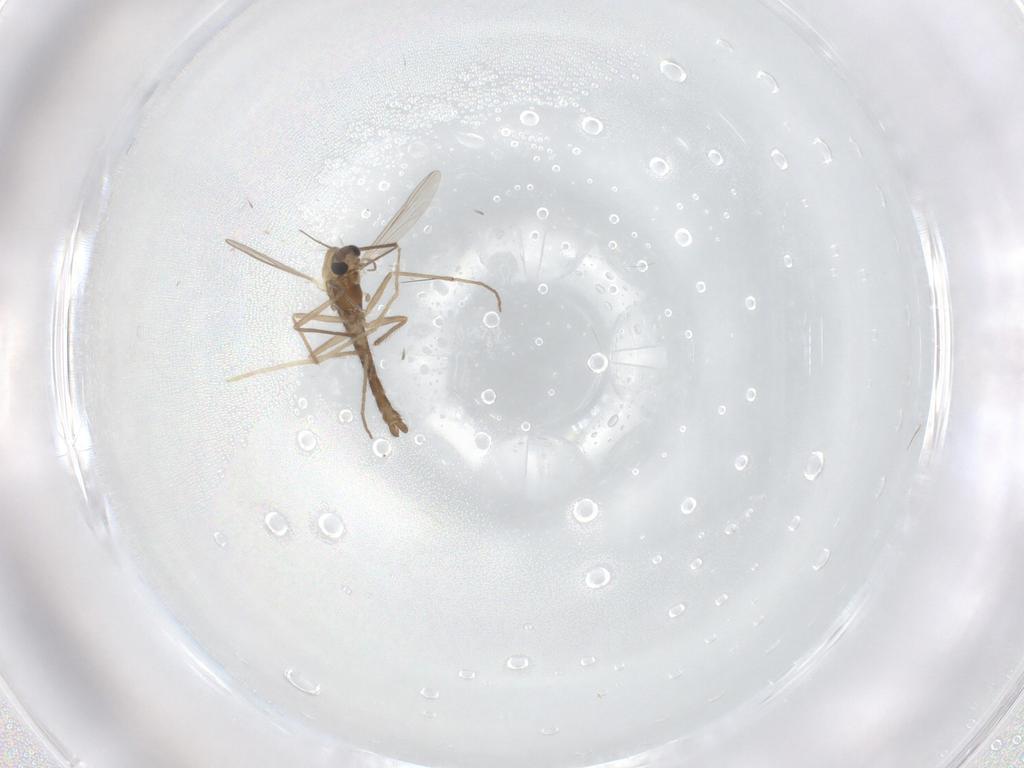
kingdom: Animalia
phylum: Arthropoda
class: Insecta
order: Diptera
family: Chironomidae
